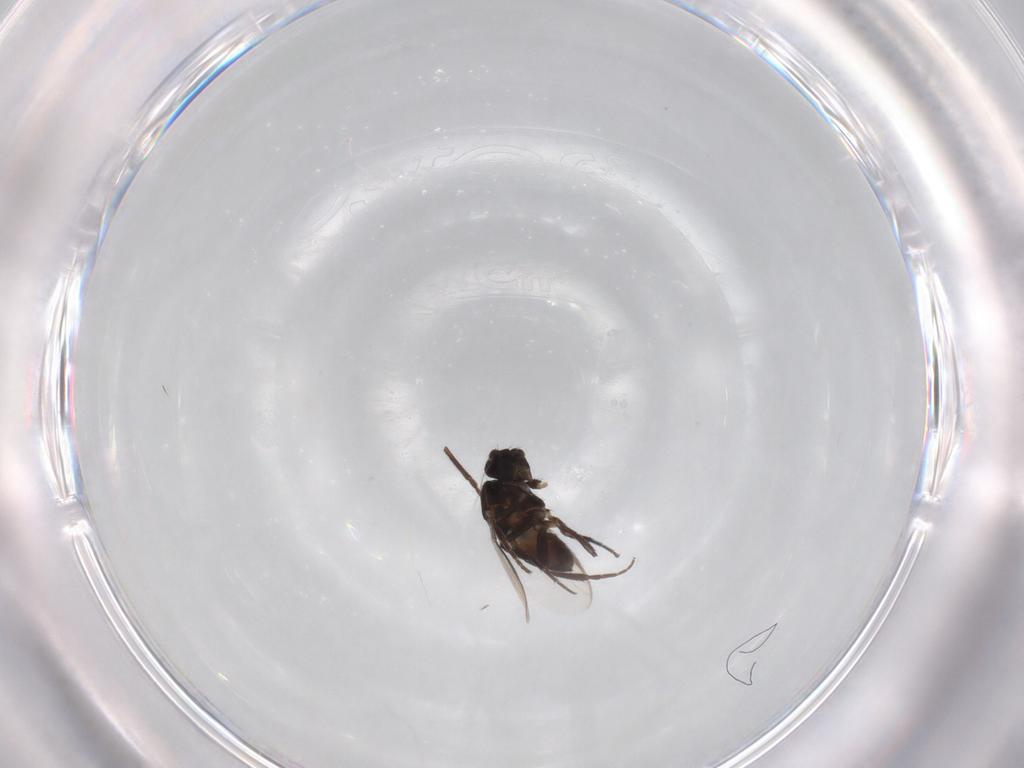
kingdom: Animalia
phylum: Arthropoda
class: Insecta
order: Diptera
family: Sphaeroceridae
